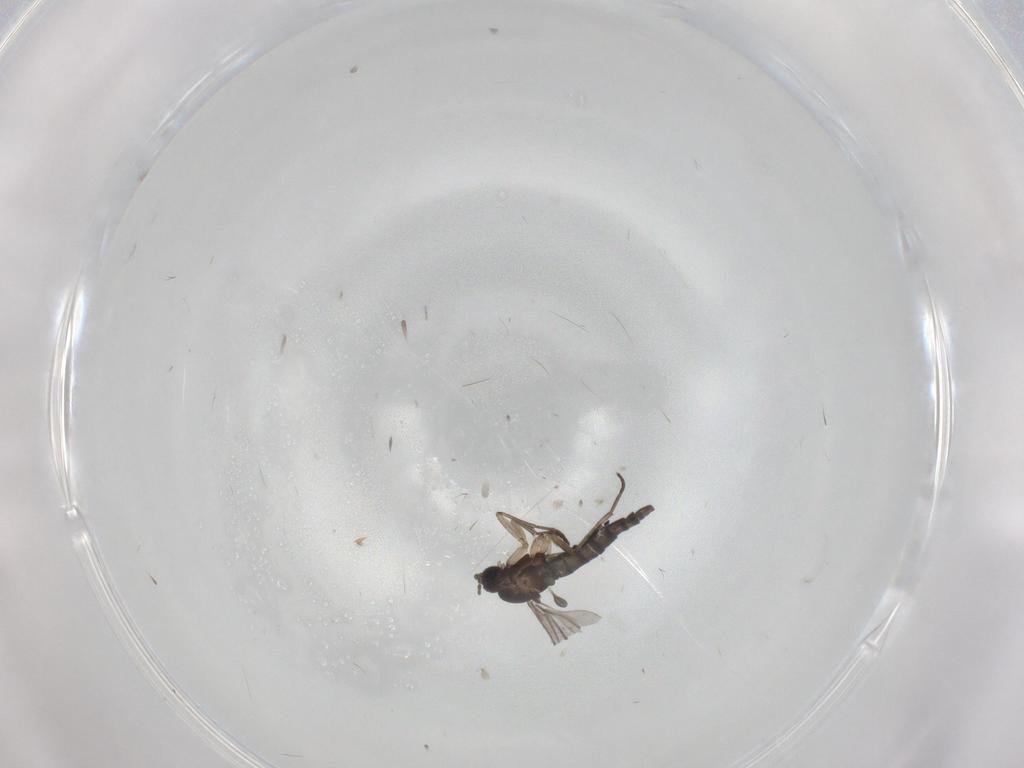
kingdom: Animalia
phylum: Arthropoda
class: Insecta
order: Diptera
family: Sciaridae
